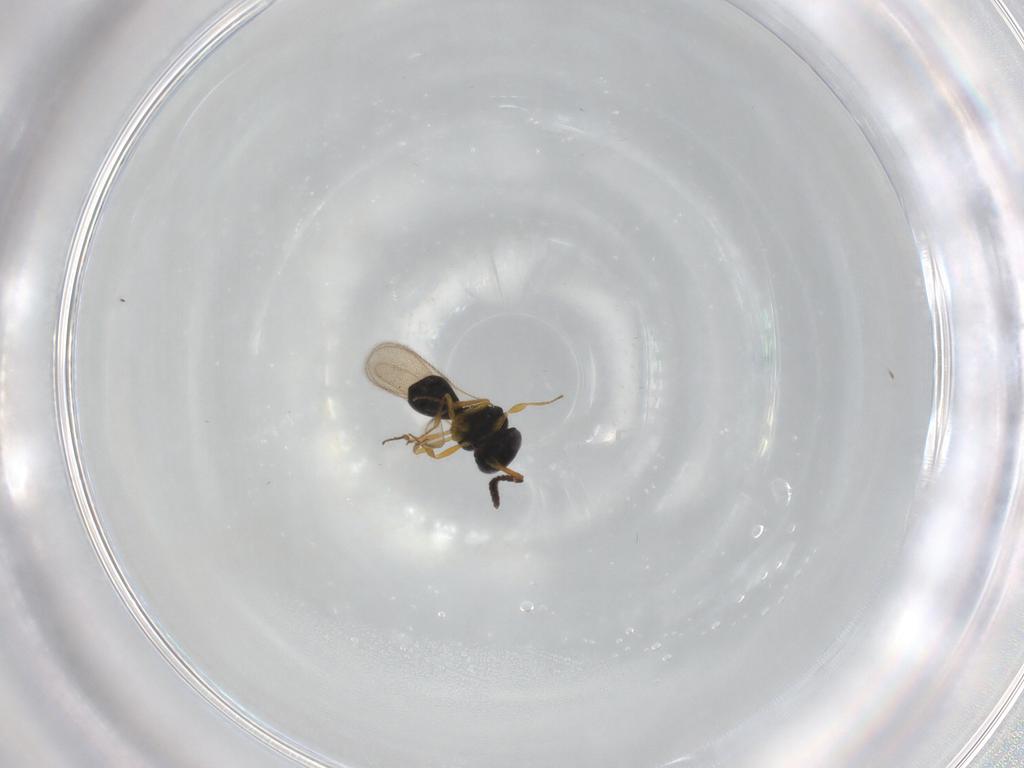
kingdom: Animalia
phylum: Arthropoda
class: Insecta
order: Hymenoptera
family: Scelionidae
